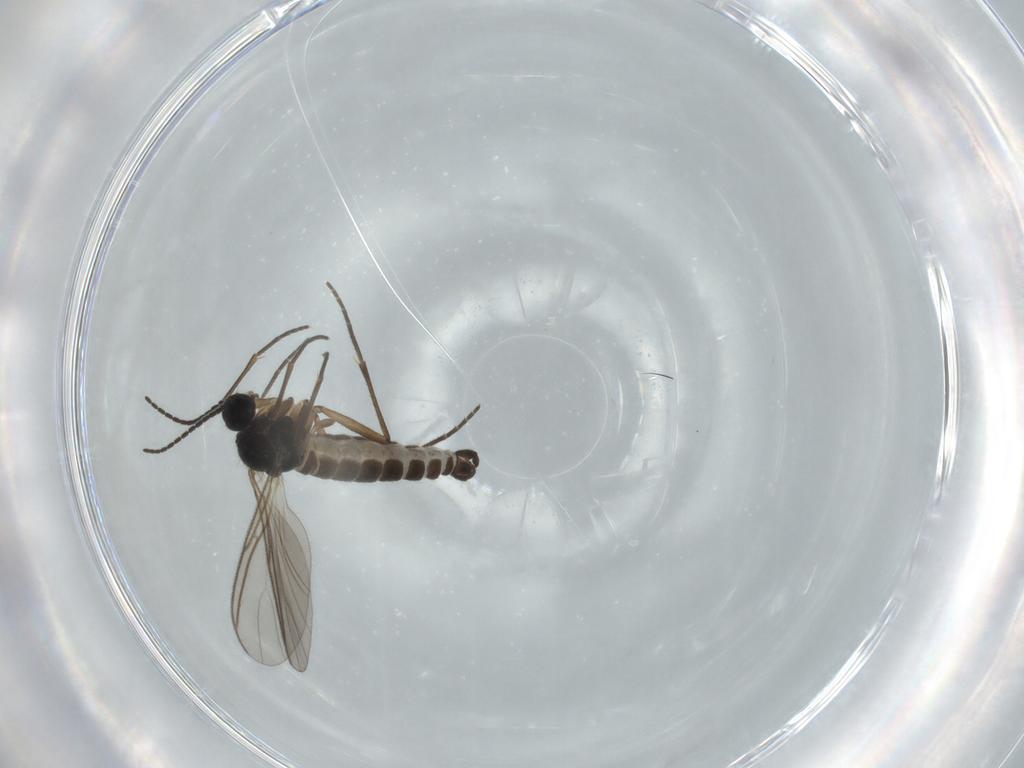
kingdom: Animalia
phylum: Arthropoda
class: Insecta
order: Diptera
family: Sciaridae
